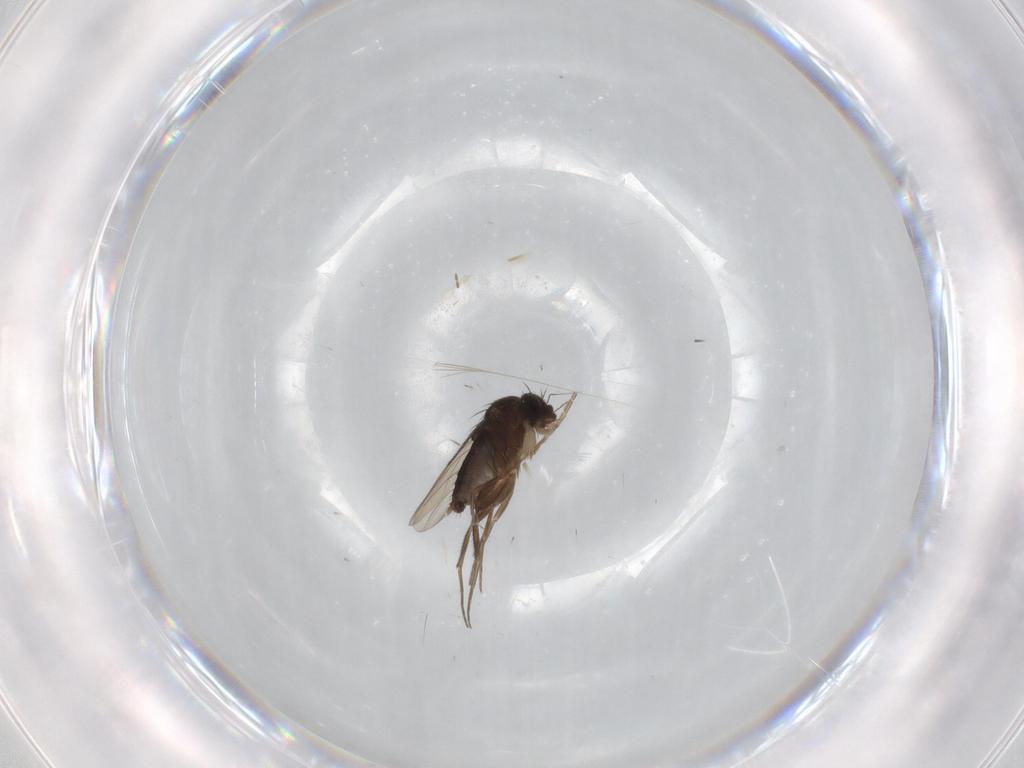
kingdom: Animalia
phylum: Arthropoda
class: Insecta
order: Diptera
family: Phoridae
